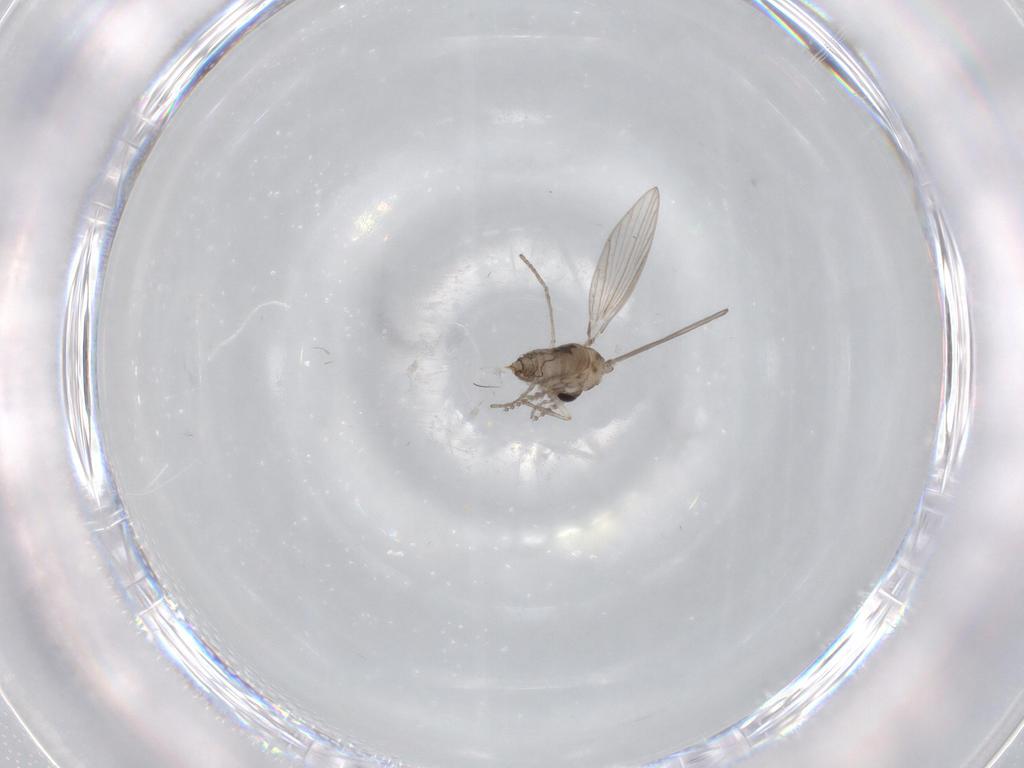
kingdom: Animalia
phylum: Arthropoda
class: Insecta
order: Diptera
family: Psychodidae
